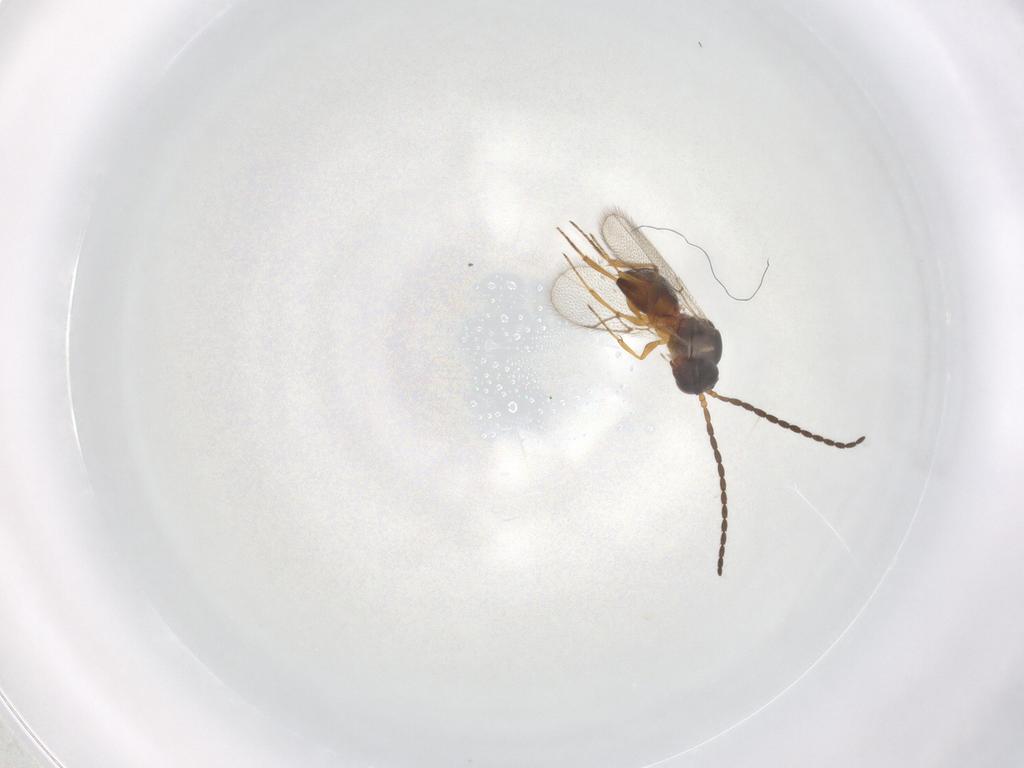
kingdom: Animalia
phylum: Arthropoda
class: Insecta
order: Hymenoptera
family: Figitidae
